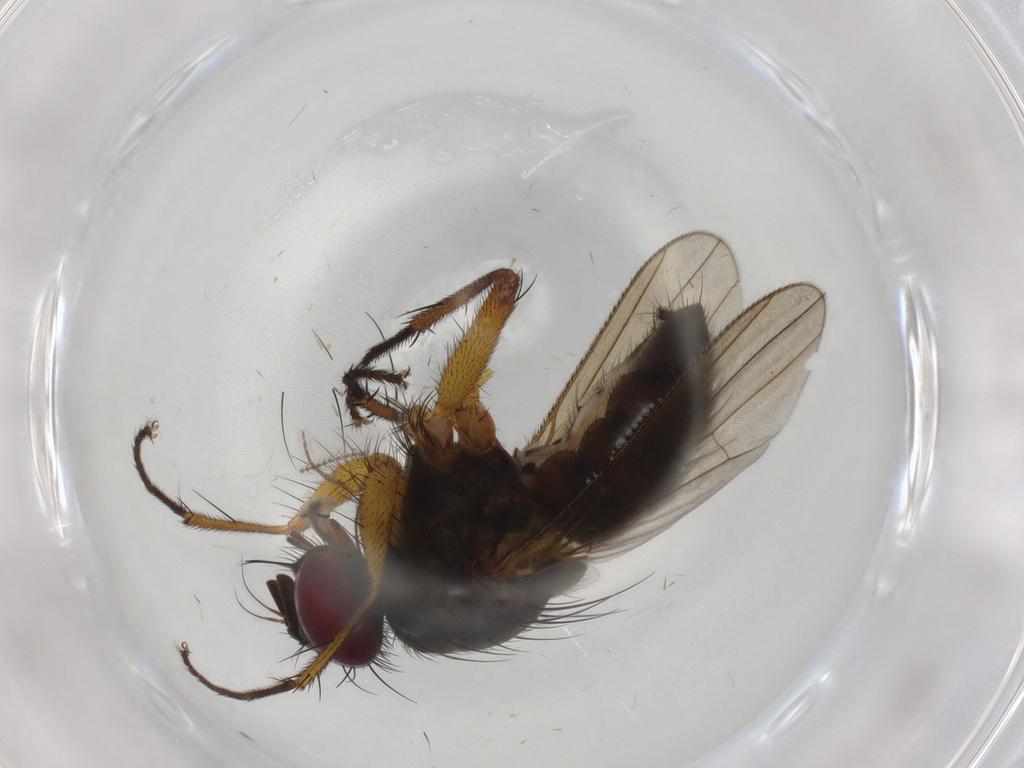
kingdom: Animalia
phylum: Arthropoda
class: Insecta
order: Diptera
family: Muscidae
